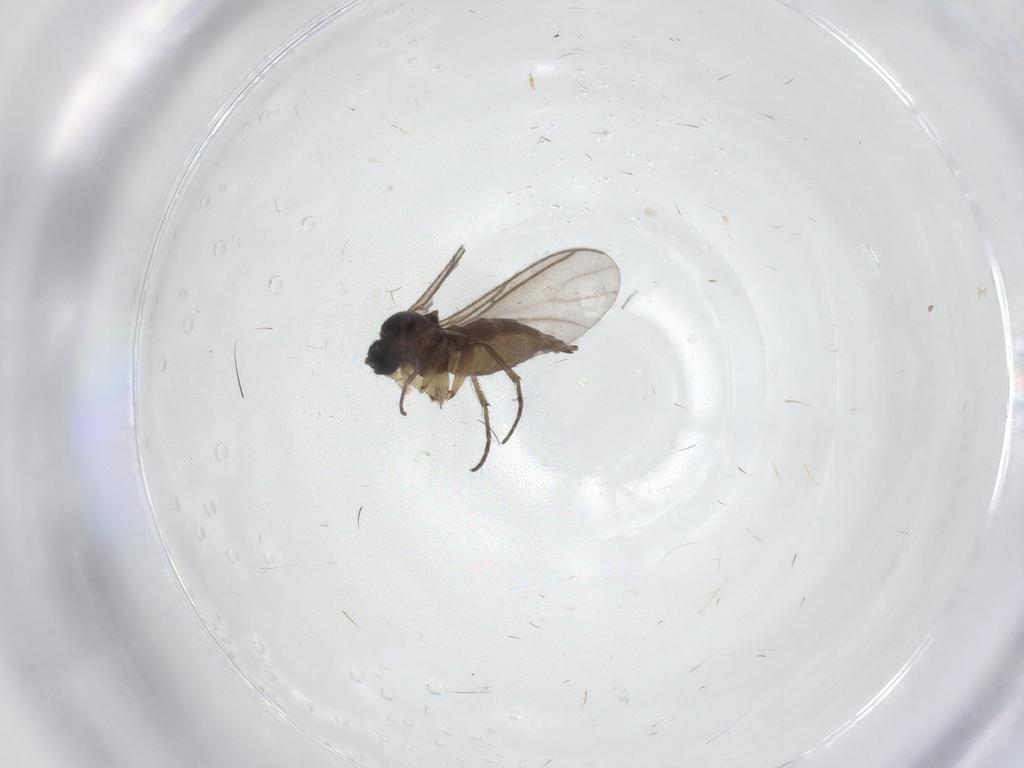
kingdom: Animalia
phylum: Arthropoda
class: Insecta
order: Diptera
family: Sciaridae
